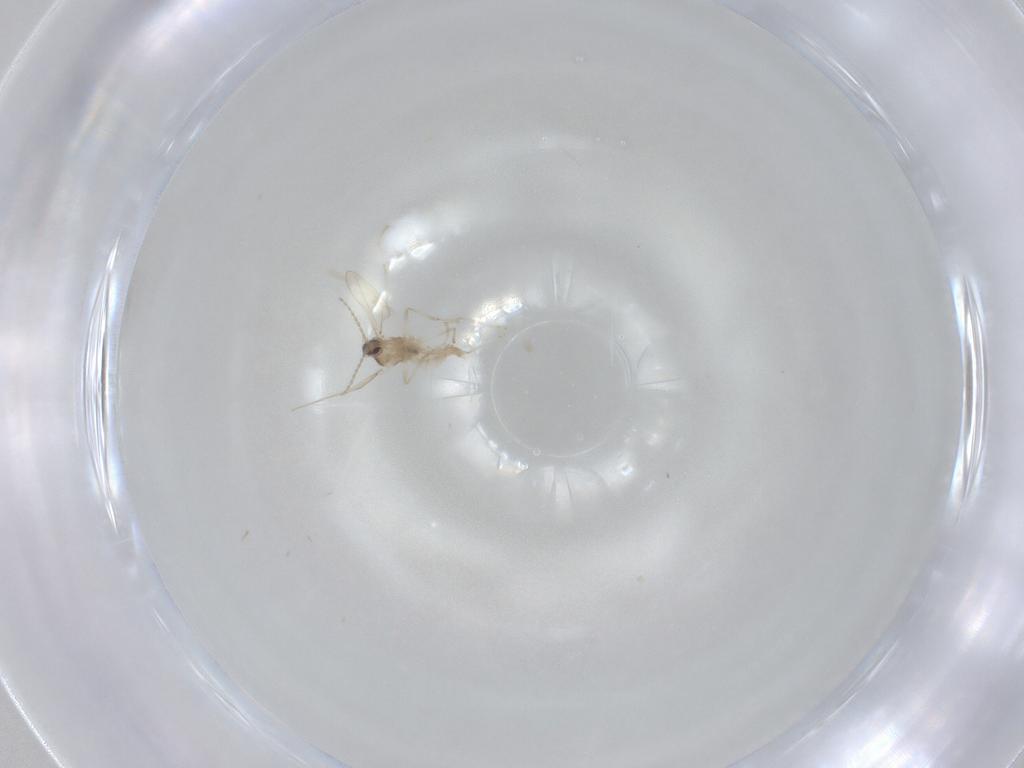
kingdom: Animalia
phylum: Arthropoda
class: Insecta
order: Diptera
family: Cecidomyiidae
